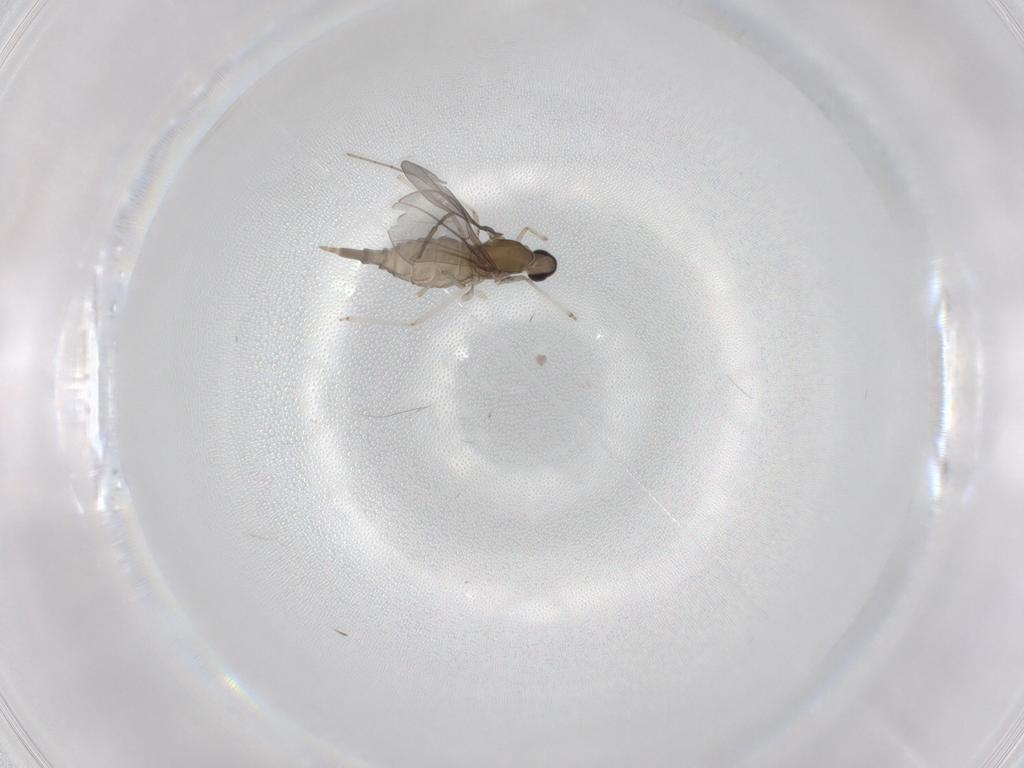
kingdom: Animalia
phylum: Arthropoda
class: Insecta
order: Diptera
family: Cecidomyiidae
